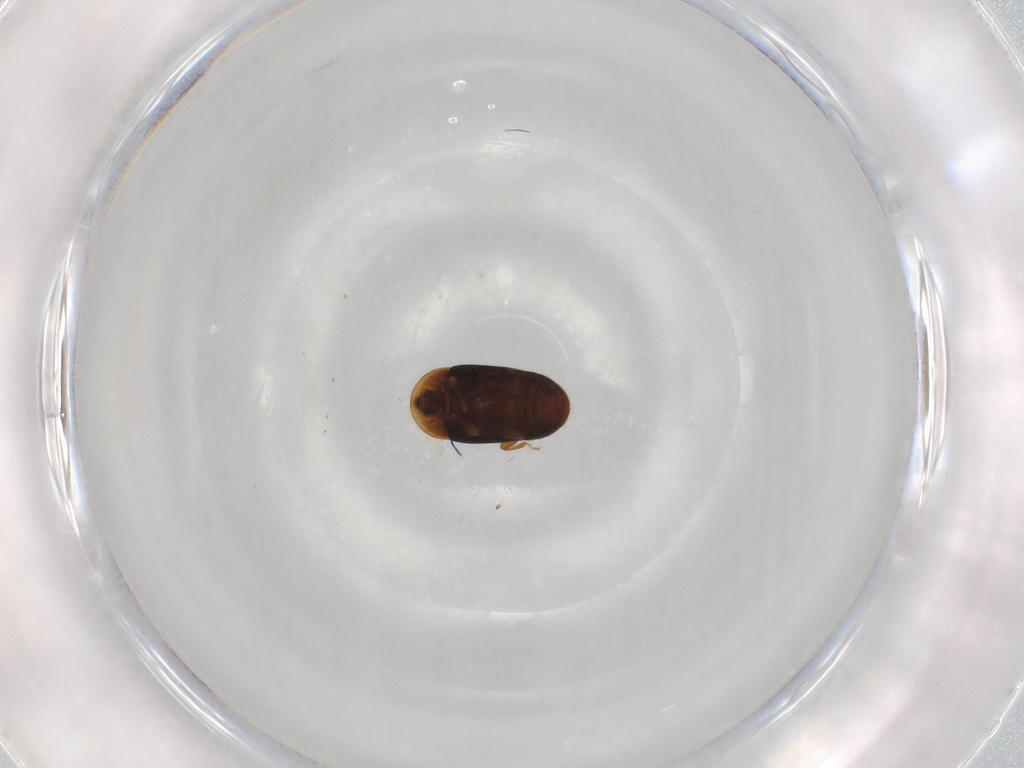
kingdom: Animalia
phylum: Arthropoda
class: Insecta
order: Coleoptera
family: Corylophidae
